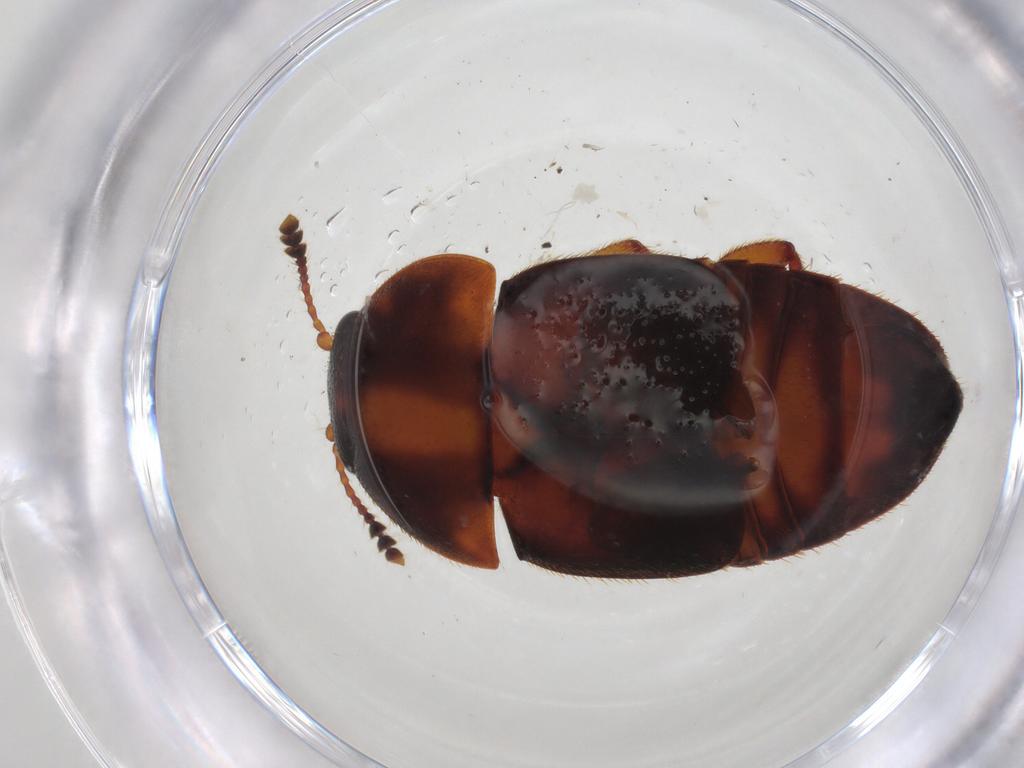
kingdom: Animalia
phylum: Arthropoda
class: Insecta
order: Coleoptera
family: Nitidulidae
